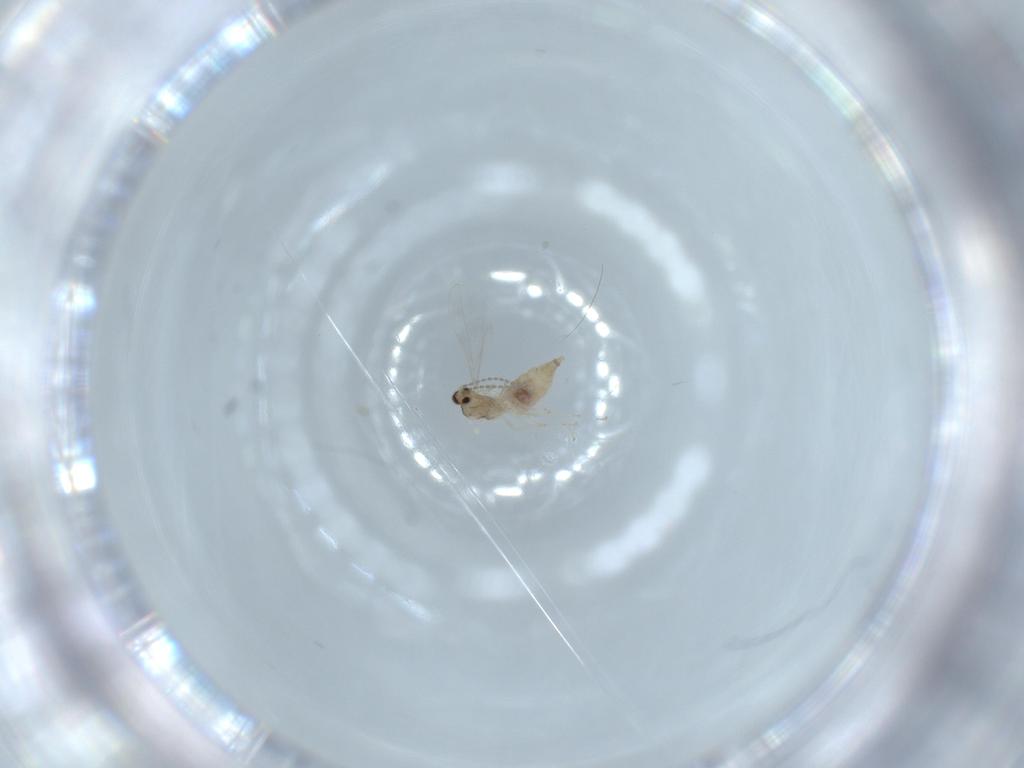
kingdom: Animalia
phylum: Arthropoda
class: Insecta
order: Diptera
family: Cecidomyiidae
